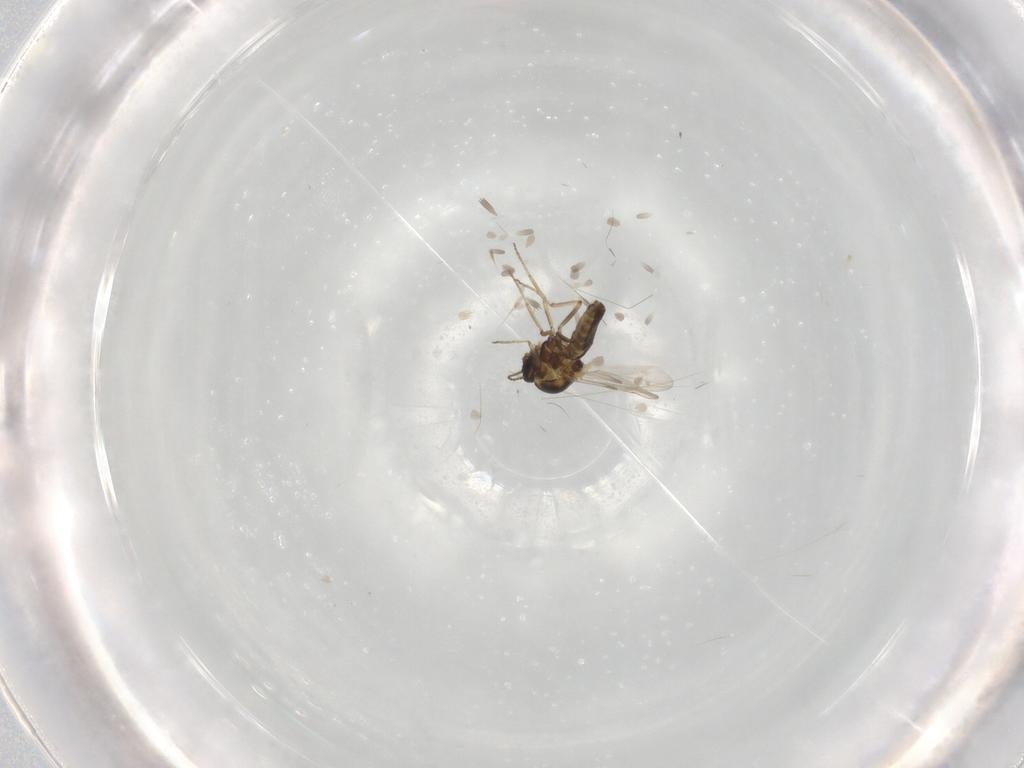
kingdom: Animalia
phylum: Arthropoda
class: Insecta
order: Diptera
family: Ceratopogonidae
